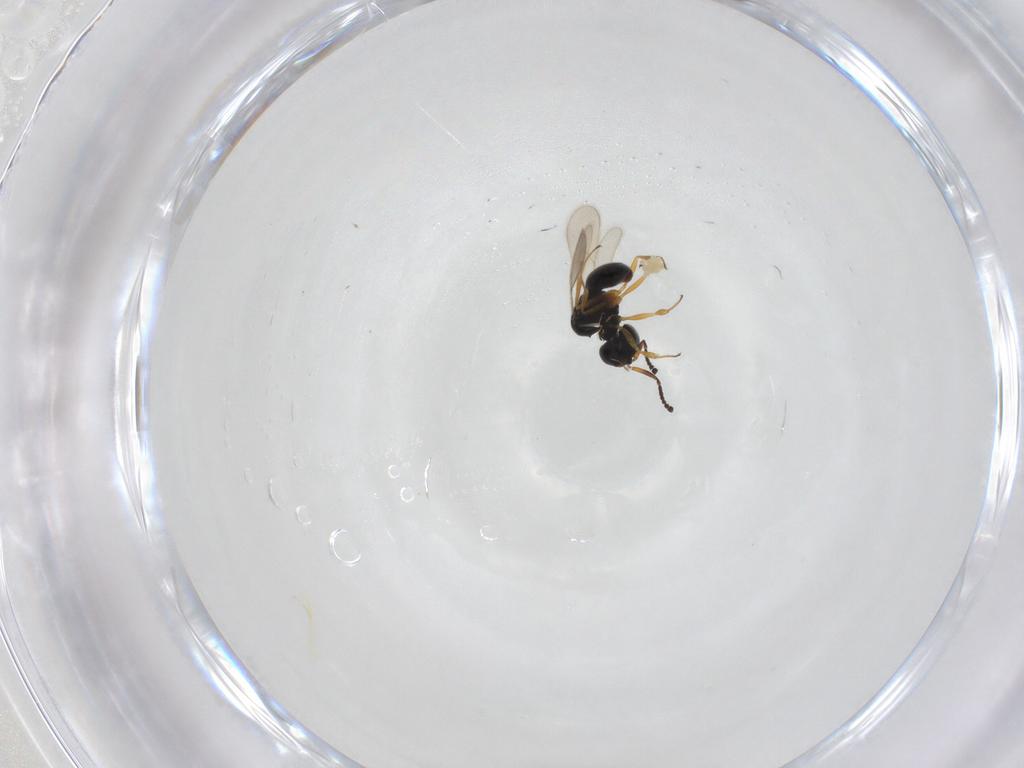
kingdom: Animalia
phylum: Arthropoda
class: Insecta
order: Hymenoptera
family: Scelionidae
